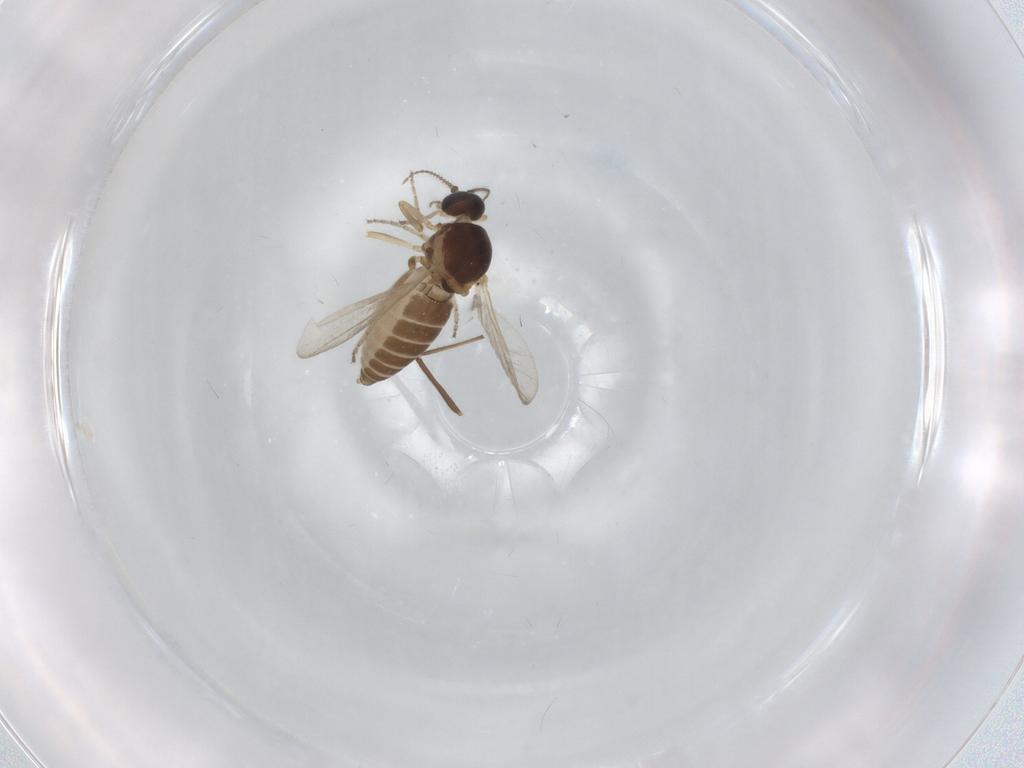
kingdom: Animalia
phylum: Arthropoda
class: Insecta
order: Diptera
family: Ceratopogonidae
